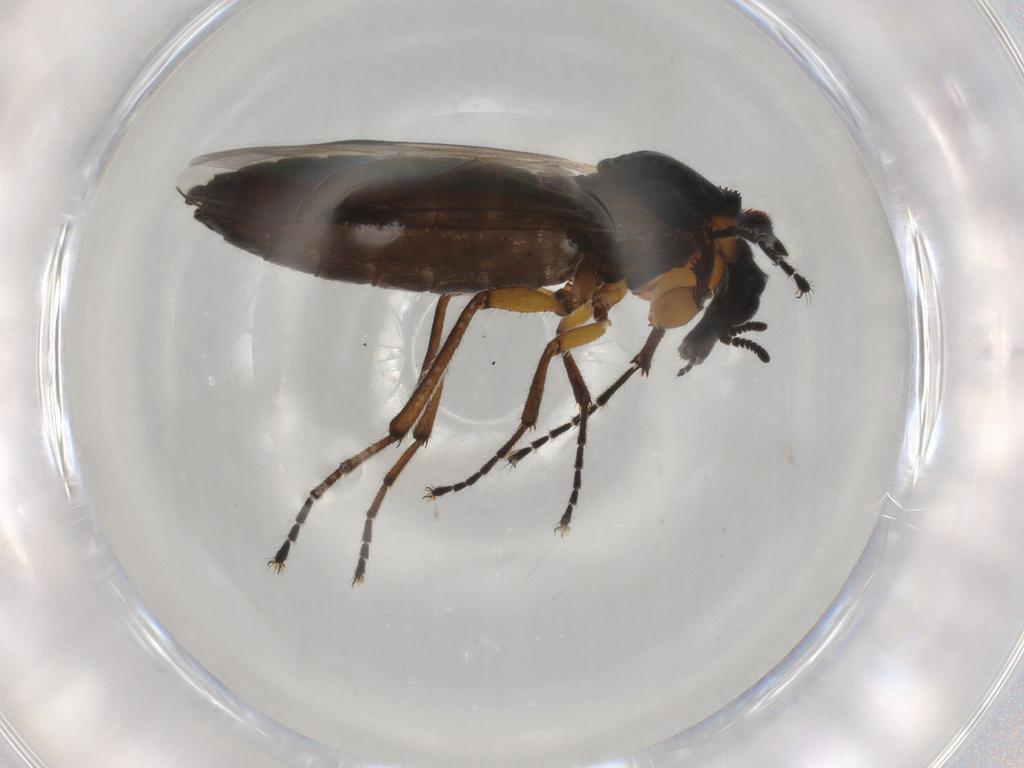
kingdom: Animalia
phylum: Arthropoda
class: Insecta
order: Diptera
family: Bibionidae
